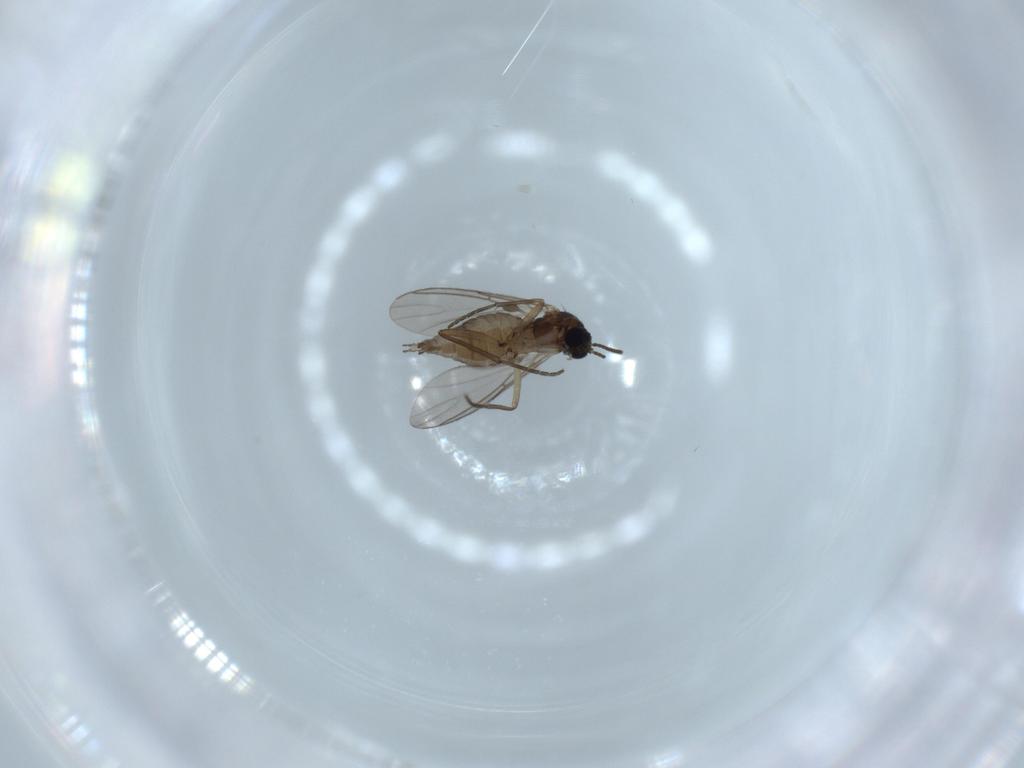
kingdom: Animalia
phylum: Arthropoda
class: Insecta
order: Diptera
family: Sciaridae
